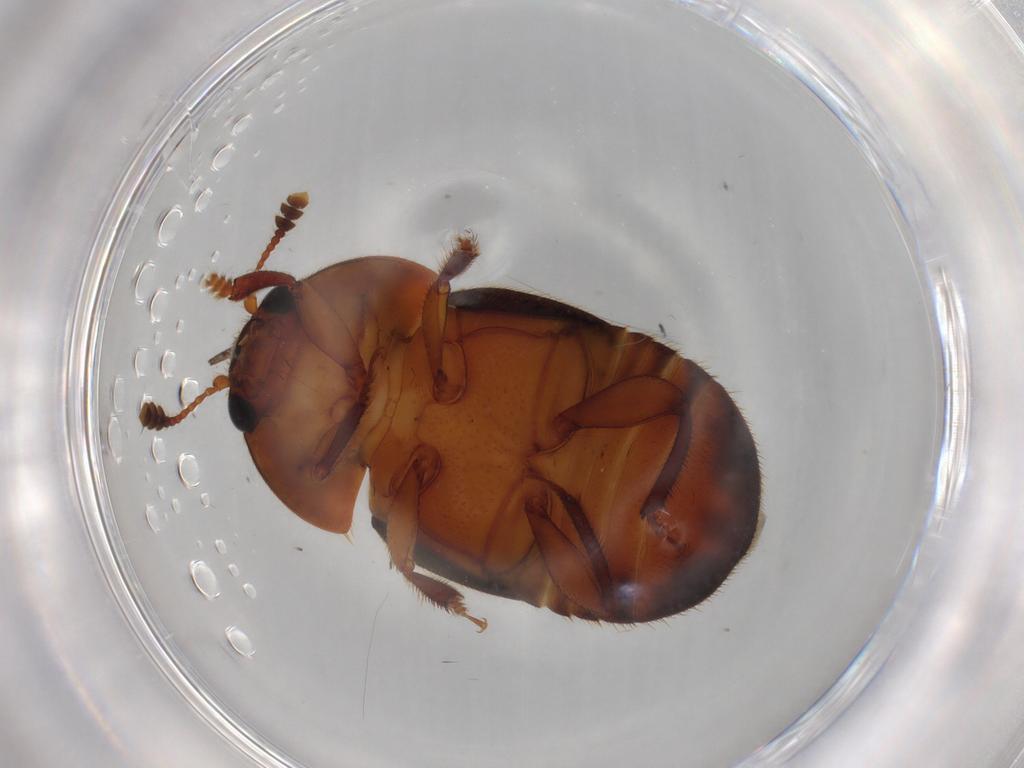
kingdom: Animalia
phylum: Arthropoda
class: Insecta
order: Coleoptera
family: Nitidulidae
